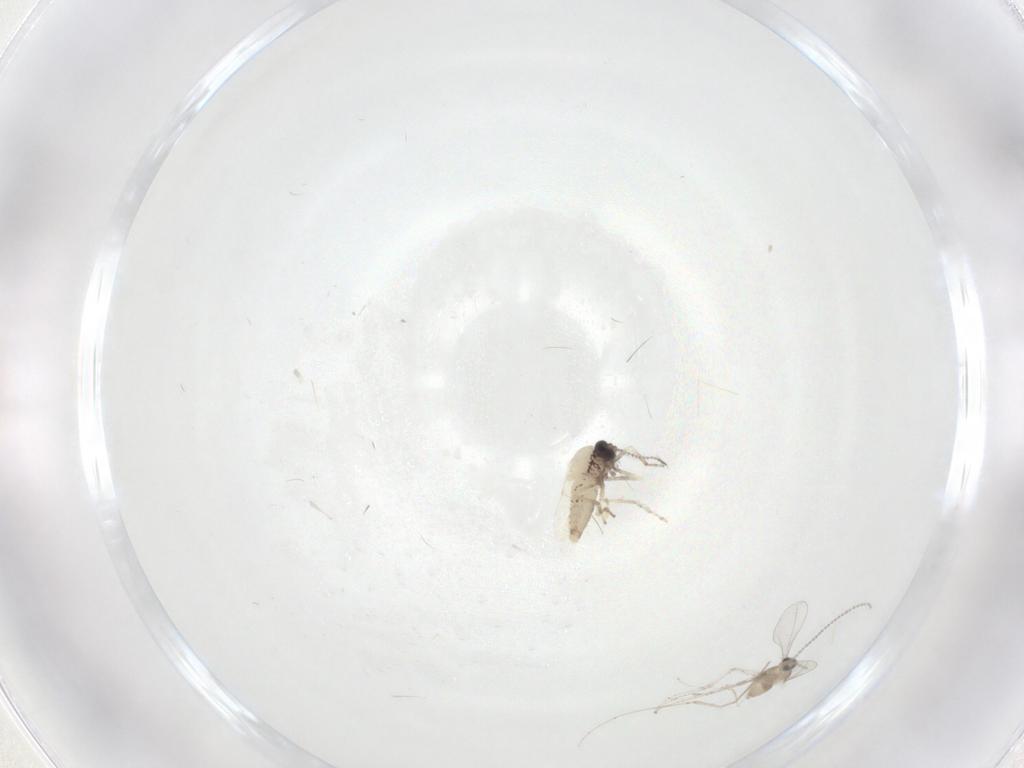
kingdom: Animalia
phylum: Arthropoda
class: Insecta
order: Diptera
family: Ceratopogonidae
